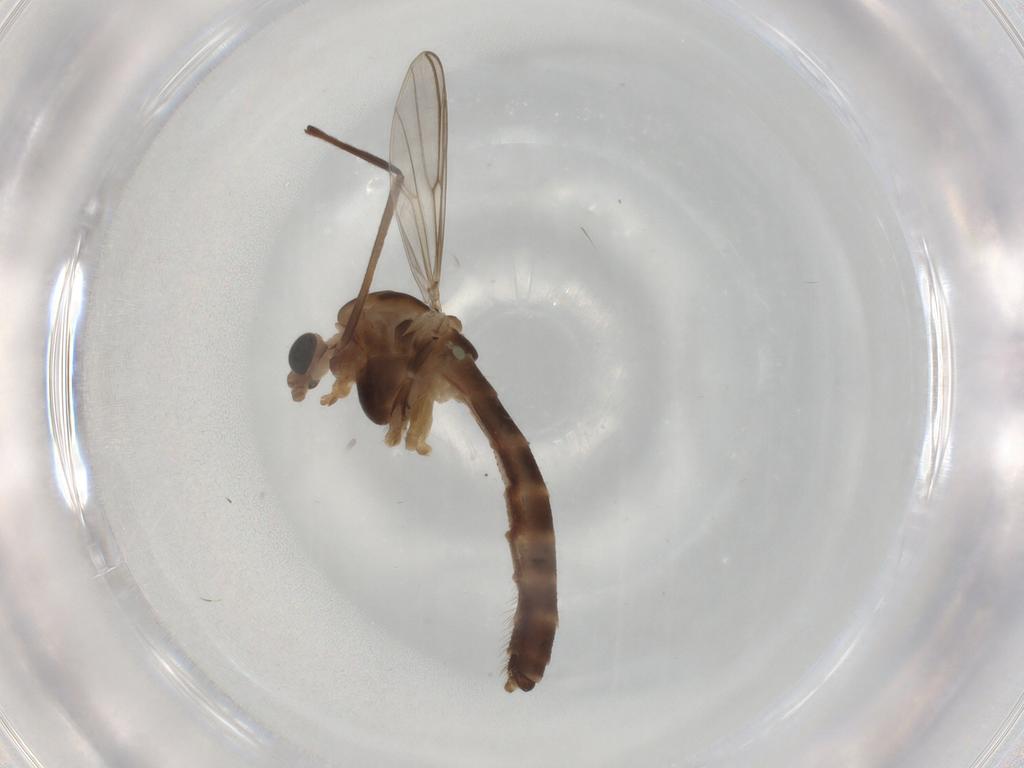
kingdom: Animalia
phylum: Arthropoda
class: Insecta
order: Diptera
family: Chironomidae
